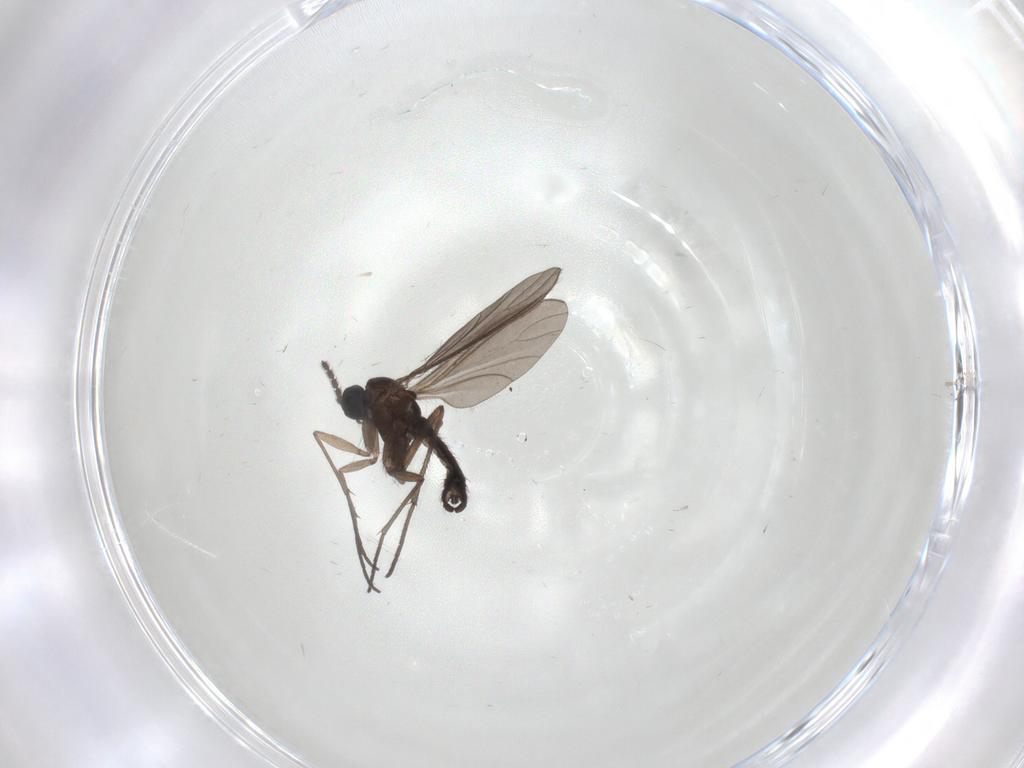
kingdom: Animalia
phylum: Arthropoda
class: Insecta
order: Diptera
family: Sciaridae
